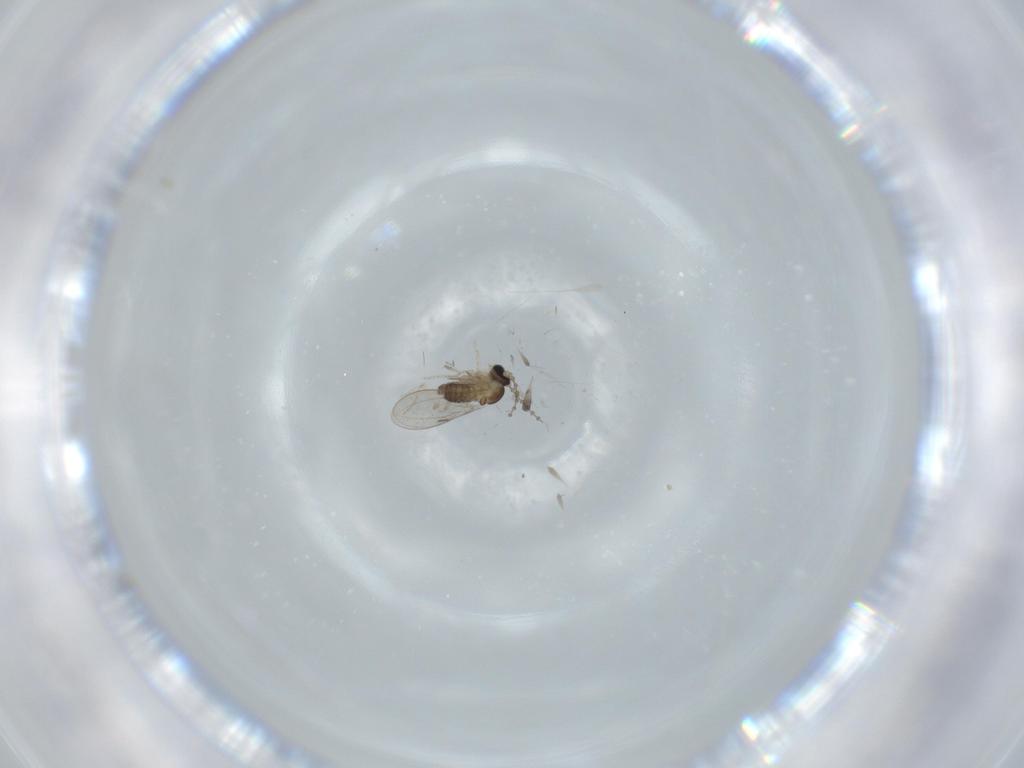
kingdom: Animalia
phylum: Arthropoda
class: Insecta
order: Diptera
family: Cecidomyiidae
